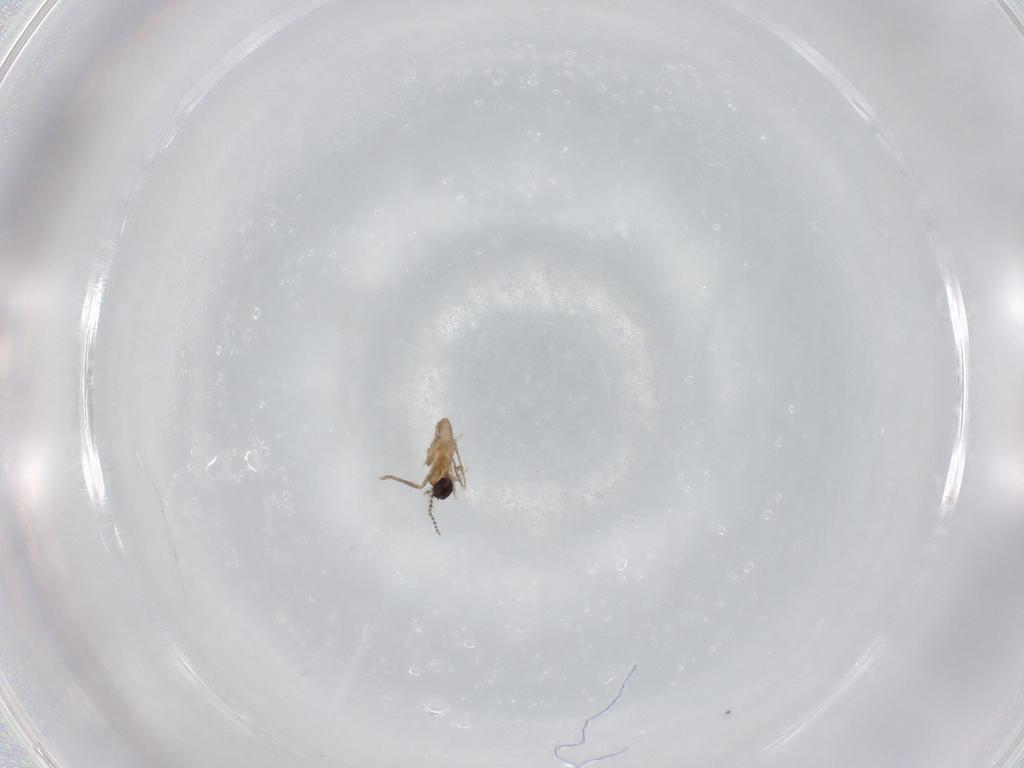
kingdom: Animalia
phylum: Arthropoda
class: Insecta
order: Diptera
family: Cecidomyiidae
